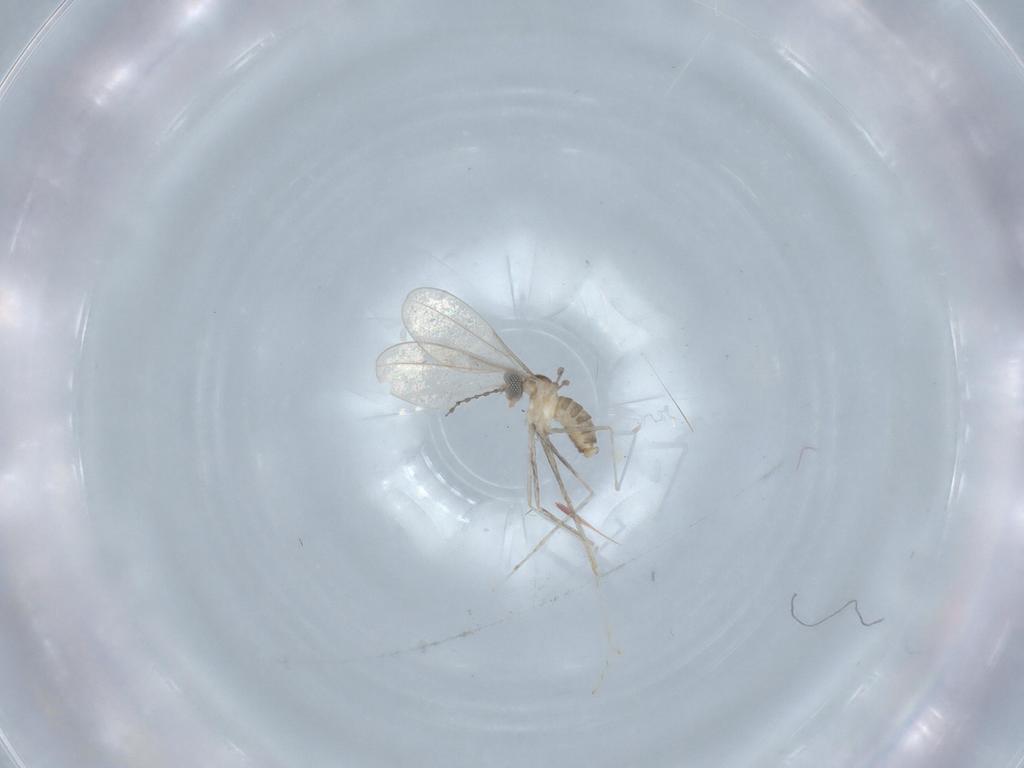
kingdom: Animalia
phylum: Arthropoda
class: Insecta
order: Diptera
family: Cecidomyiidae
